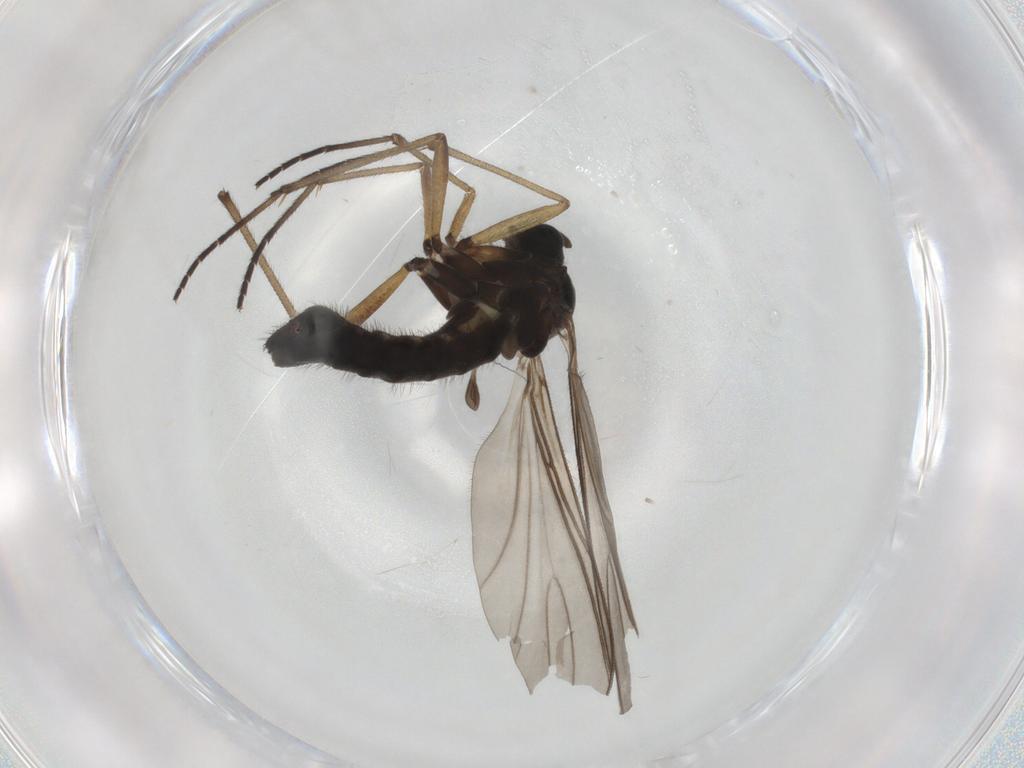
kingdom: Animalia
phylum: Arthropoda
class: Insecta
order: Diptera
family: Sciaridae
